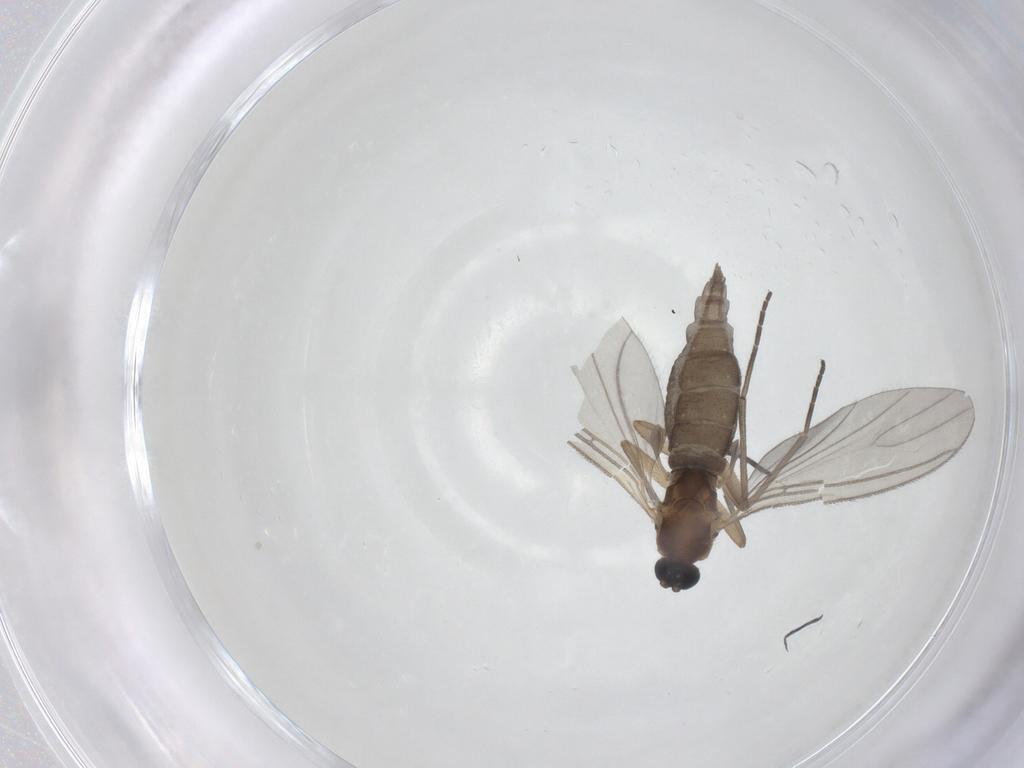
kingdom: Animalia
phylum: Arthropoda
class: Insecta
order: Diptera
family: Sciaridae
